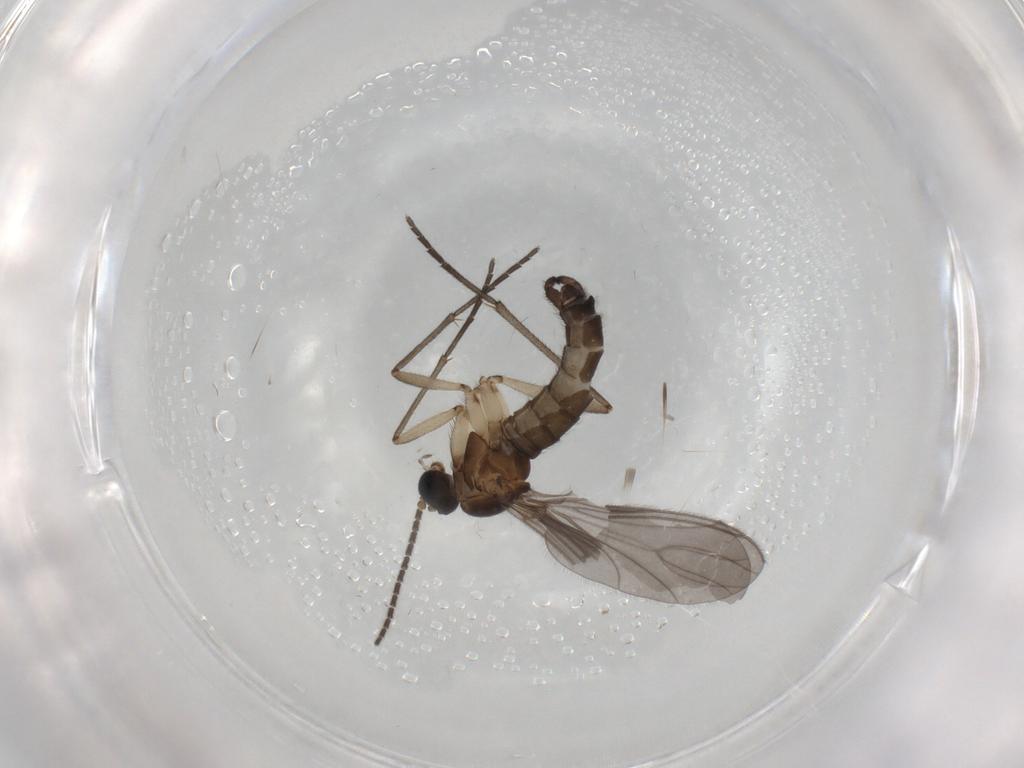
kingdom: Animalia
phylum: Arthropoda
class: Insecta
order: Diptera
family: Sciaridae
